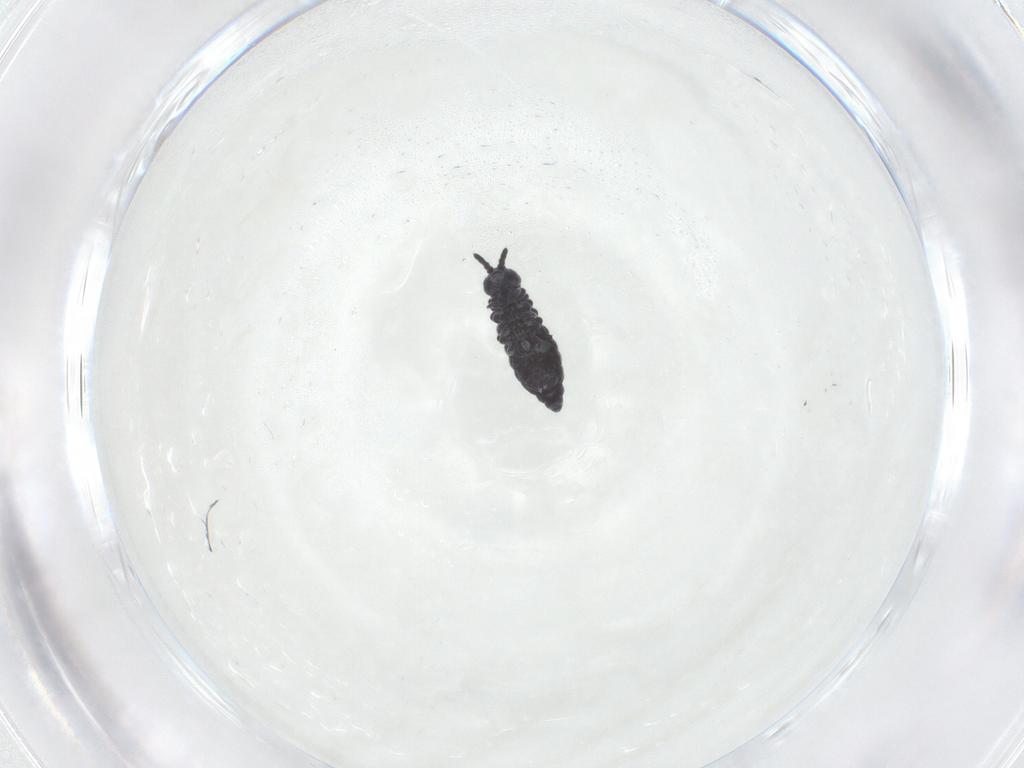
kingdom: Animalia
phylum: Arthropoda
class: Collembola
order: Poduromorpha
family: Hypogastruridae
